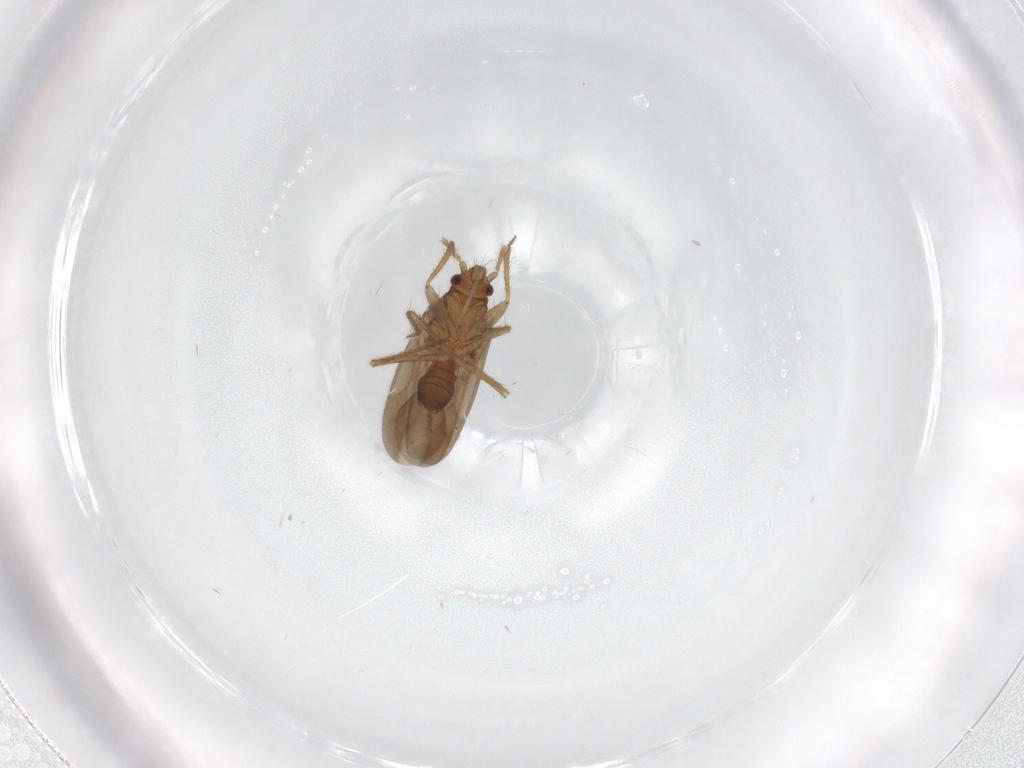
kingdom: Animalia
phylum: Arthropoda
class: Insecta
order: Hemiptera
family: Ceratocombidae
